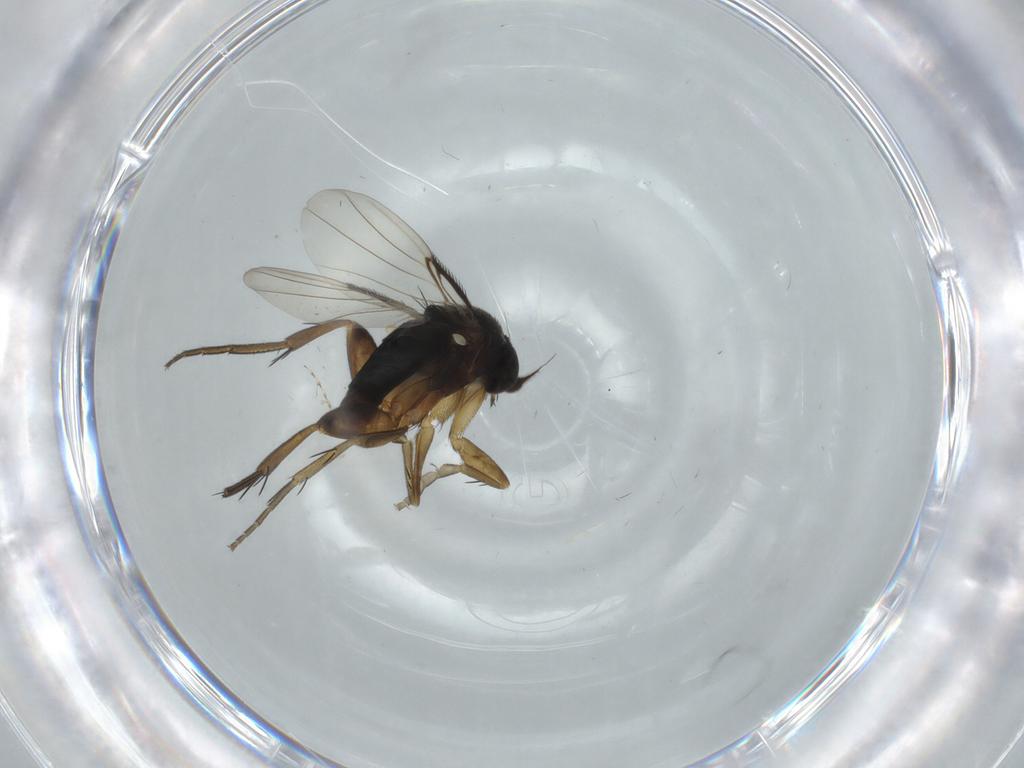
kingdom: Animalia
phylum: Arthropoda
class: Insecta
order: Diptera
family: Phoridae
